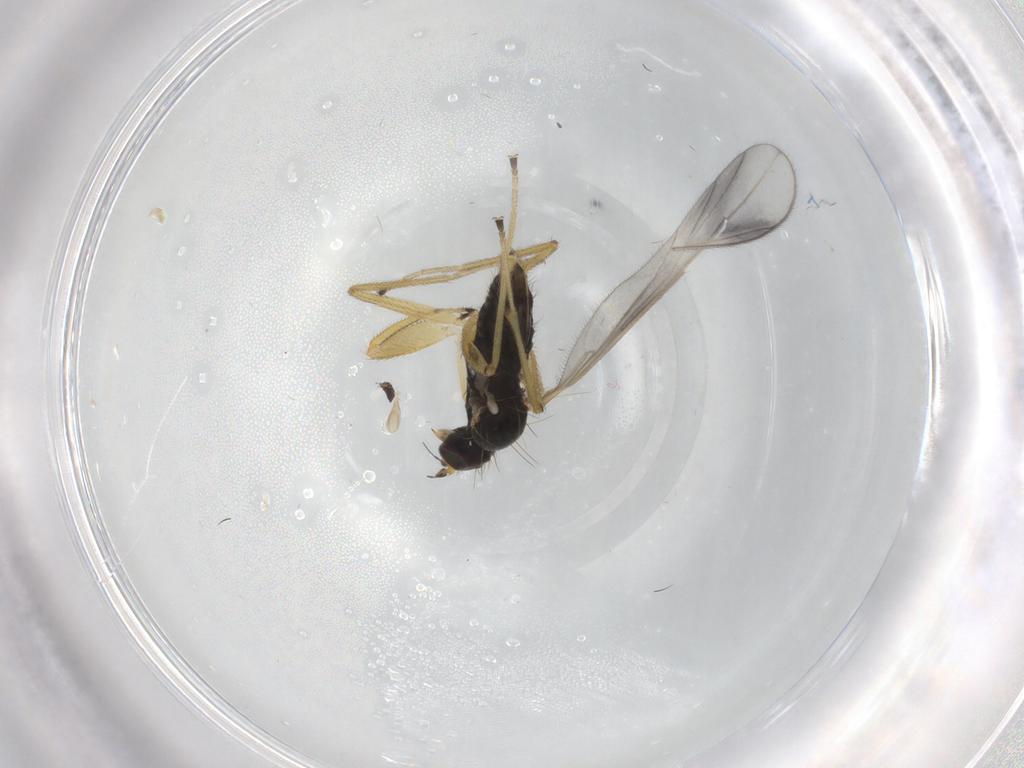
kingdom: Animalia
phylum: Arthropoda
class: Insecta
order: Diptera
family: Empididae
